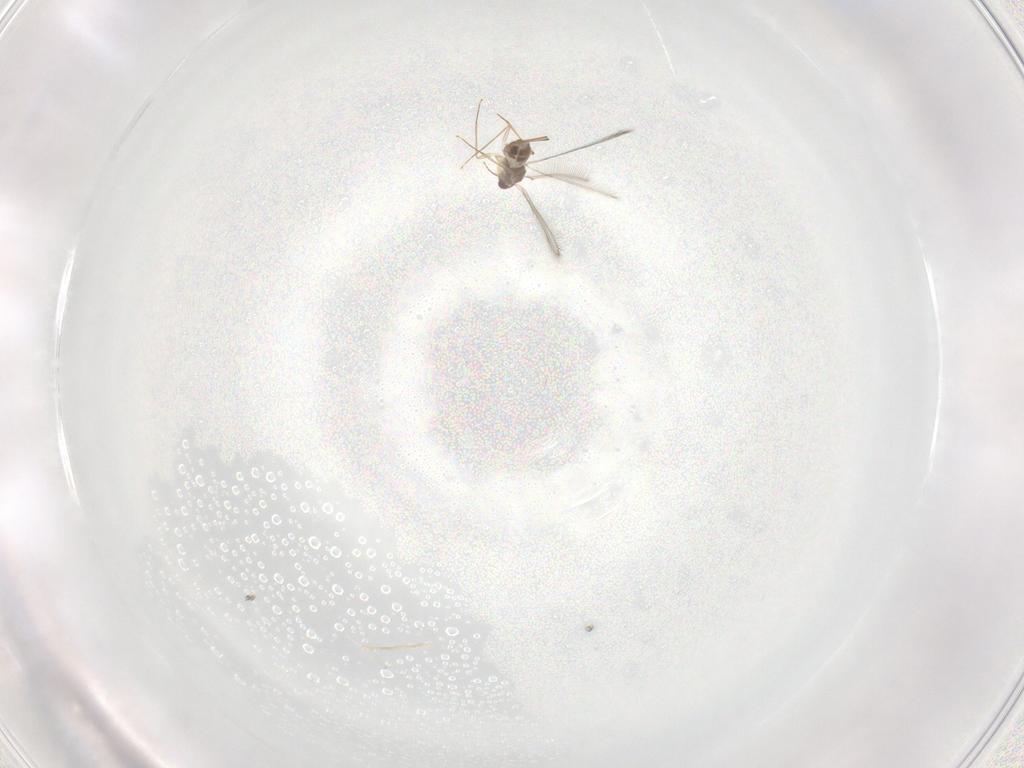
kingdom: Animalia
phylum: Arthropoda
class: Insecta
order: Hymenoptera
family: Mymaridae
